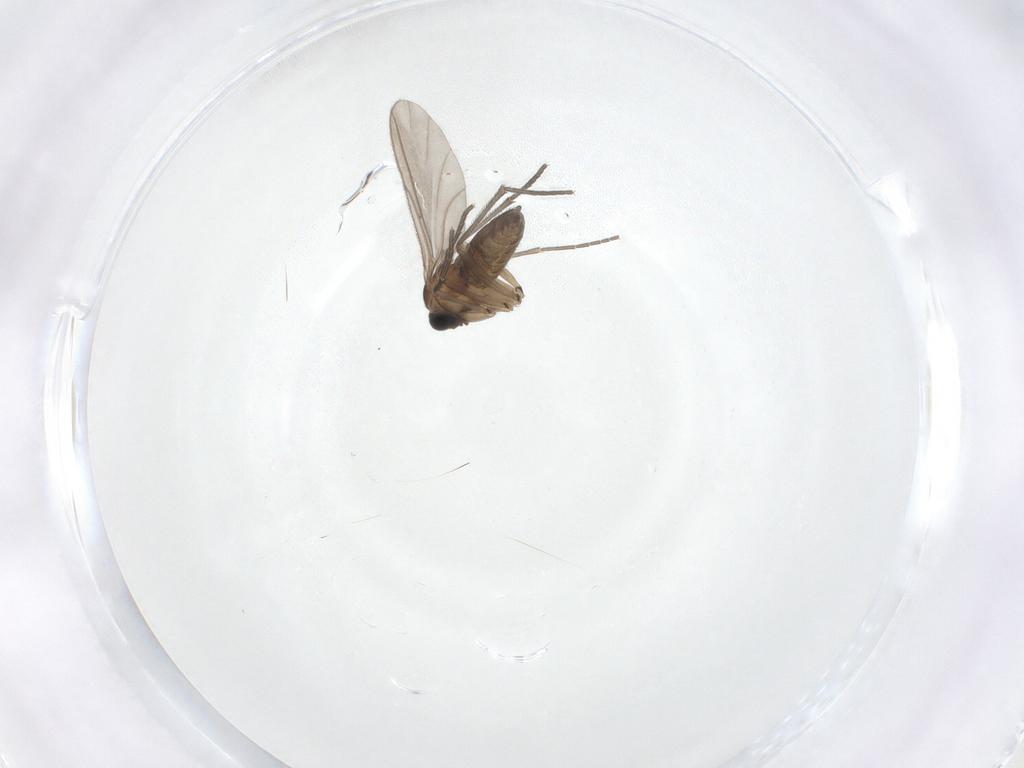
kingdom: Animalia
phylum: Arthropoda
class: Insecta
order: Diptera
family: Sciaridae
